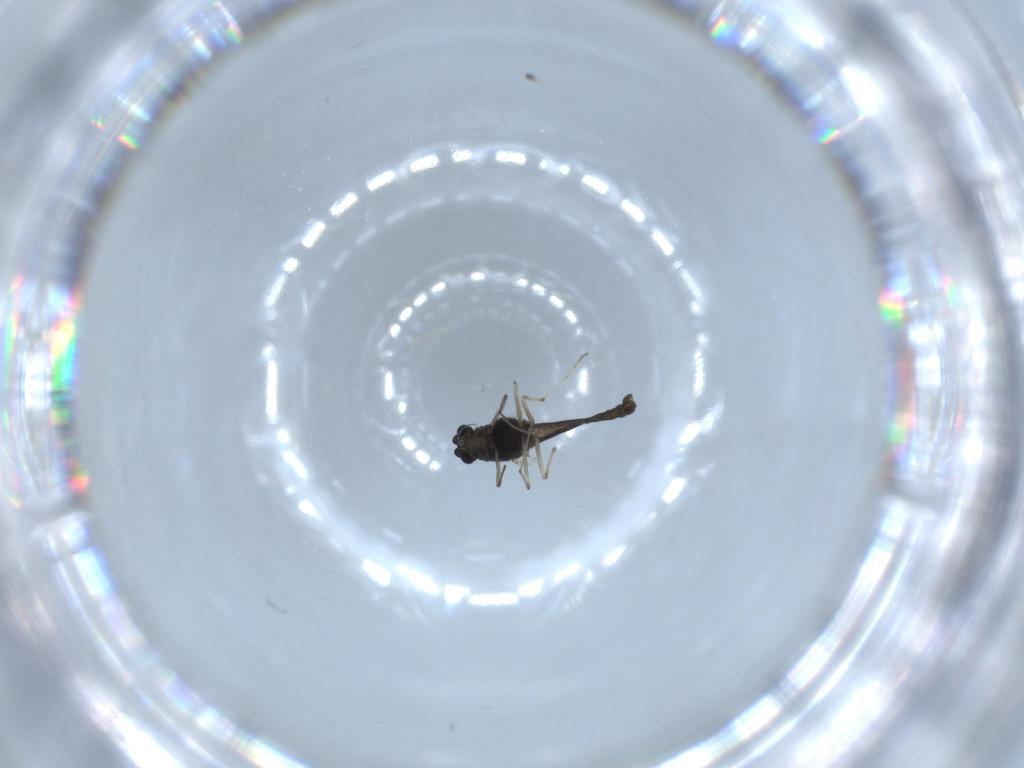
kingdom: Animalia
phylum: Arthropoda
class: Insecta
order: Diptera
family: Chironomidae
